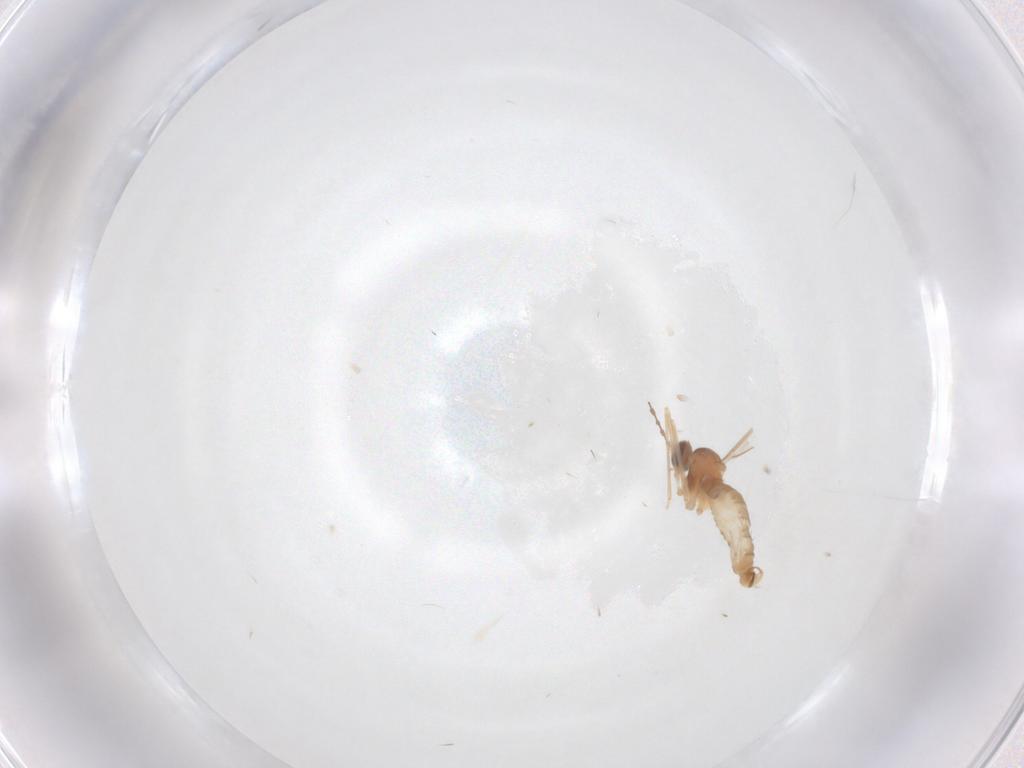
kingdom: Animalia
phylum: Arthropoda
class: Insecta
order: Diptera
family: Cecidomyiidae
